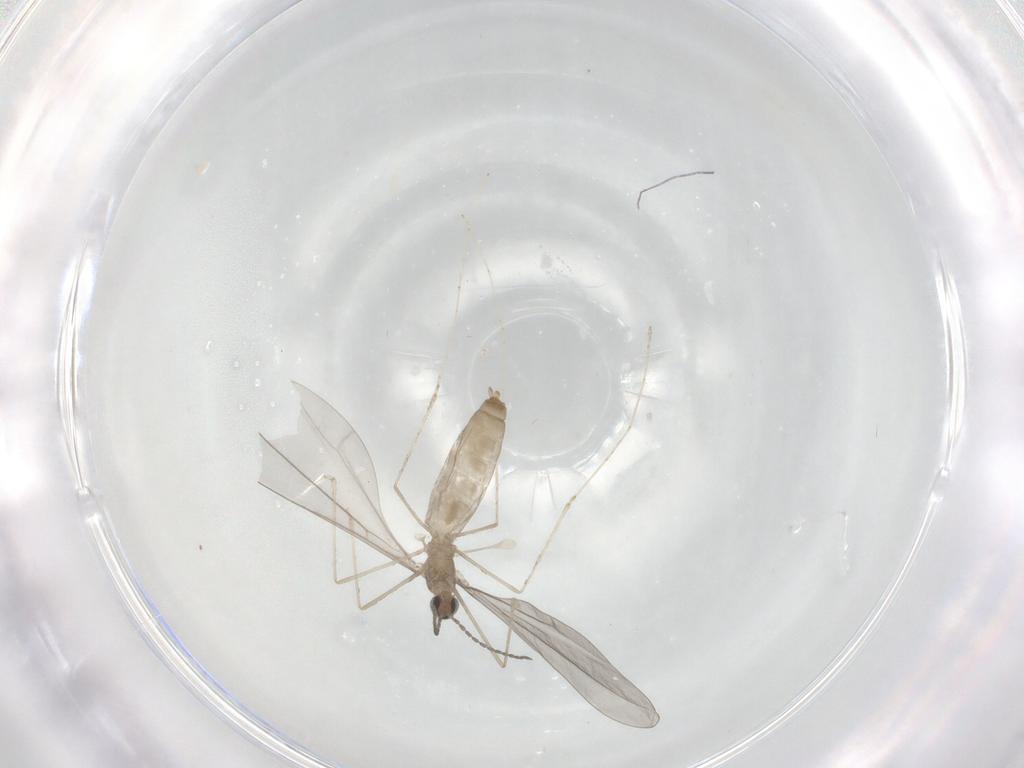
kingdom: Animalia
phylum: Arthropoda
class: Insecta
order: Diptera
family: Cecidomyiidae
